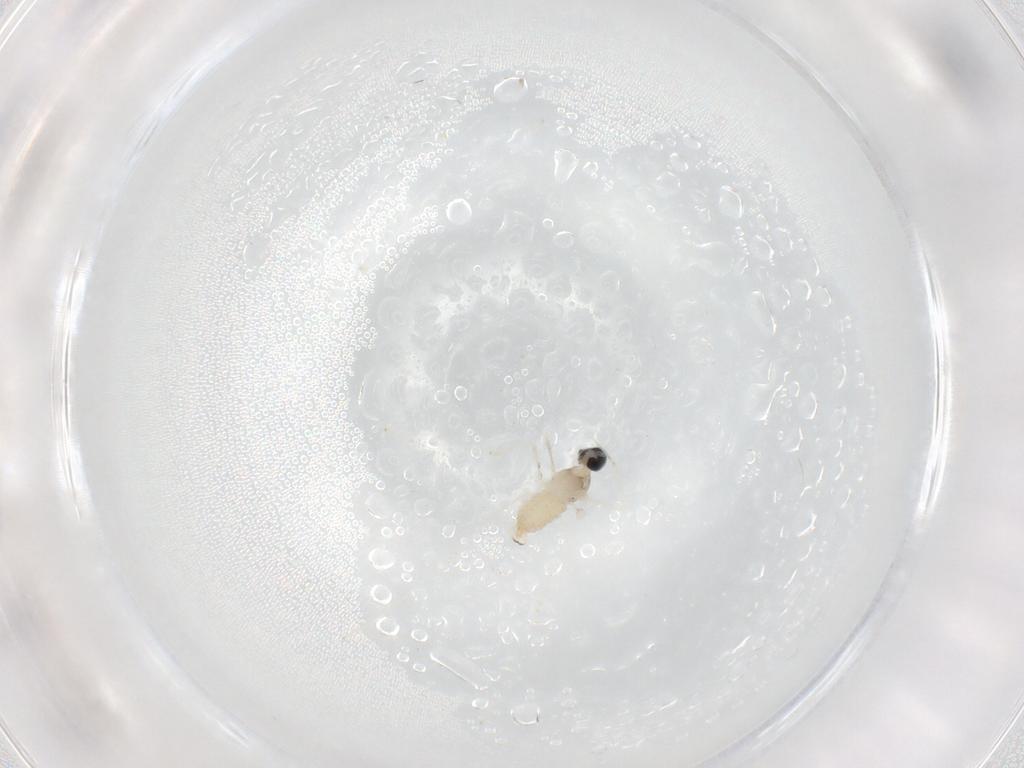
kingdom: Animalia
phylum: Arthropoda
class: Insecta
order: Diptera
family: Cecidomyiidae
